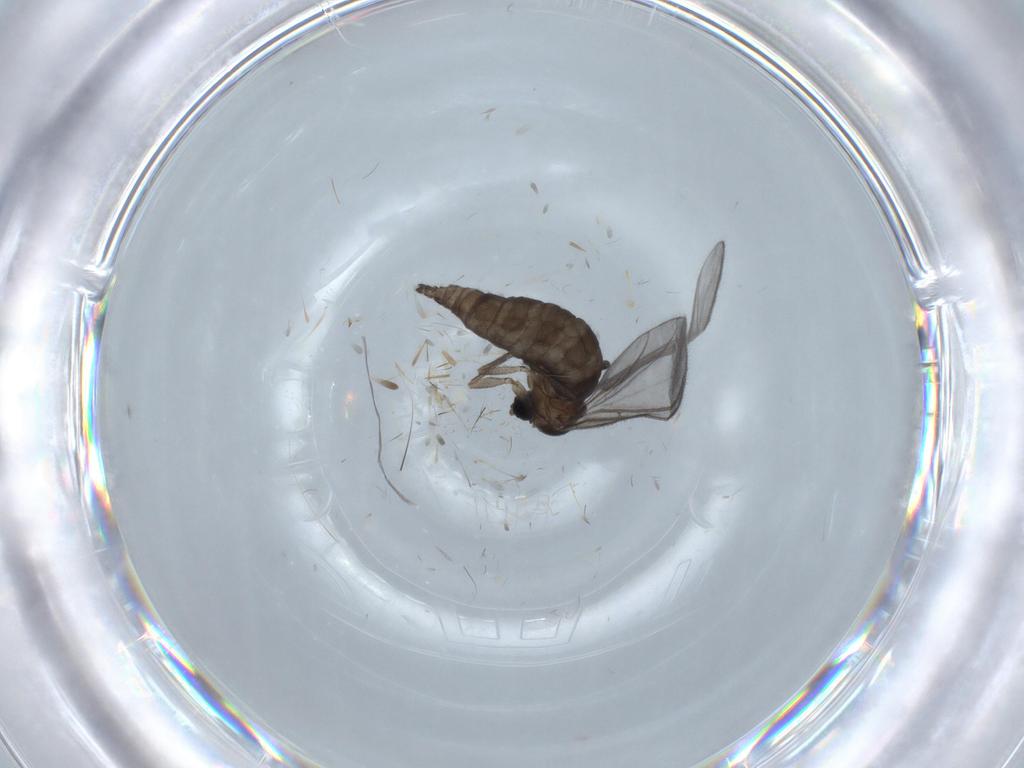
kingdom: Animalia
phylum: Arthropoda
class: Insecta
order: Diptera
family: Sciaridae
